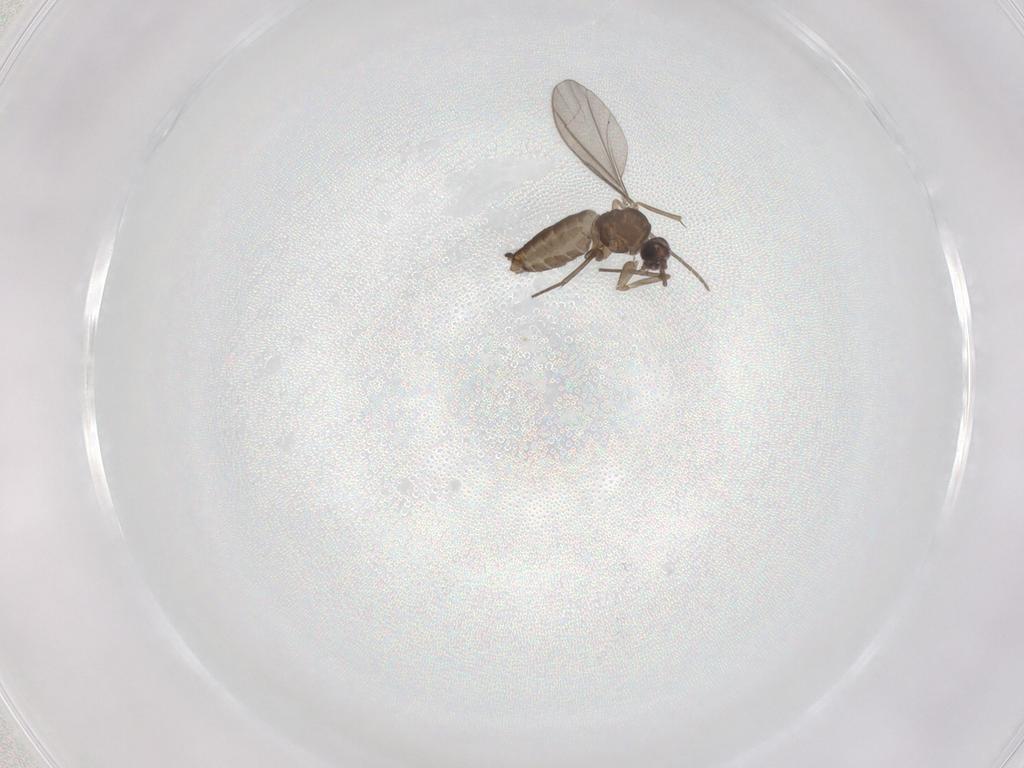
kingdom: Animalia
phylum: Arthropoda
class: Insecta
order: Diptera
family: Sciaridae
